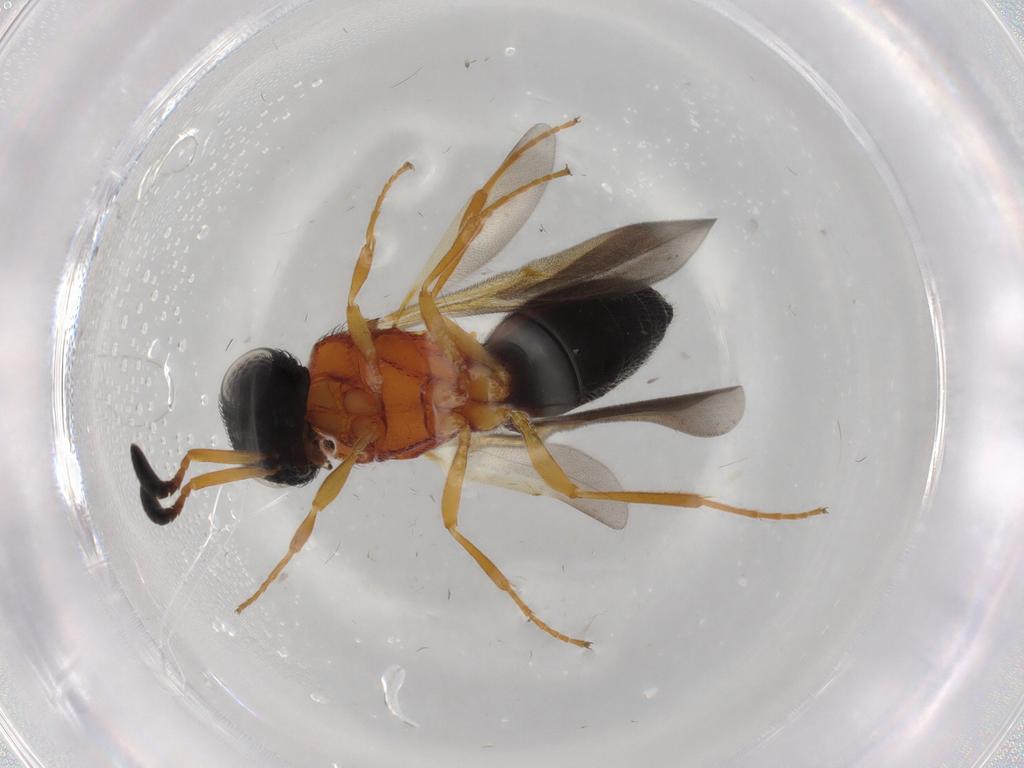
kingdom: Animalia
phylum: Arthropoda
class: Insecta
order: Hymenoptera
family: Scelionidae
